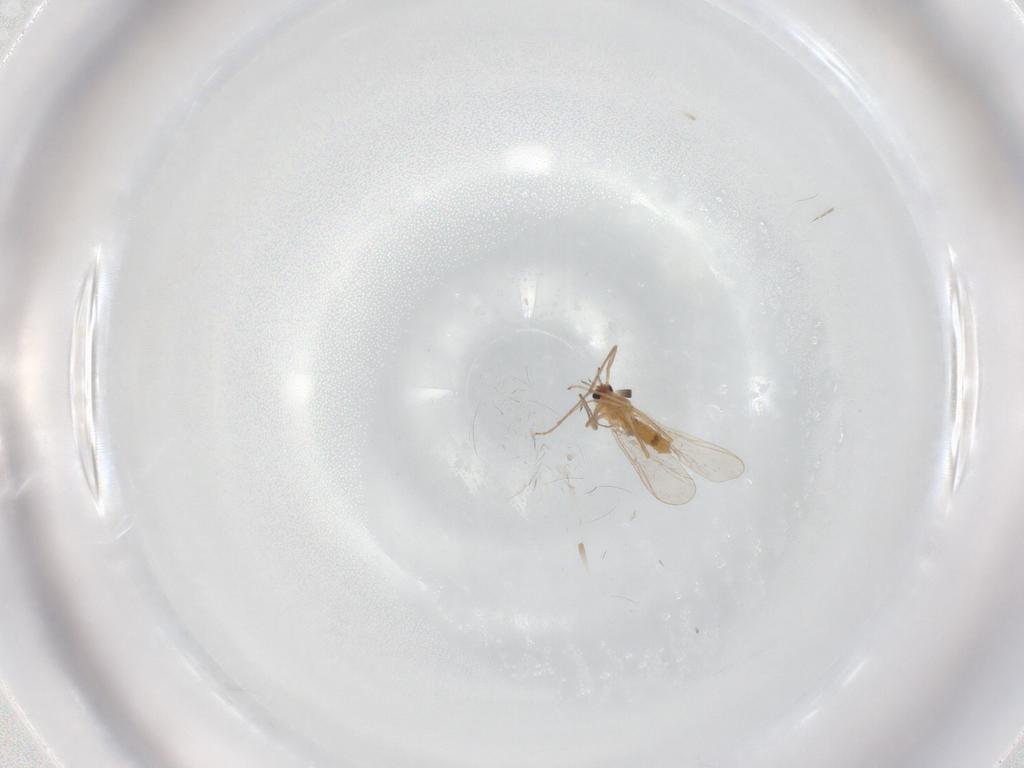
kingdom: Animalia
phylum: Arthropoda
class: Insecta
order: Diptera
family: Chironomidae
